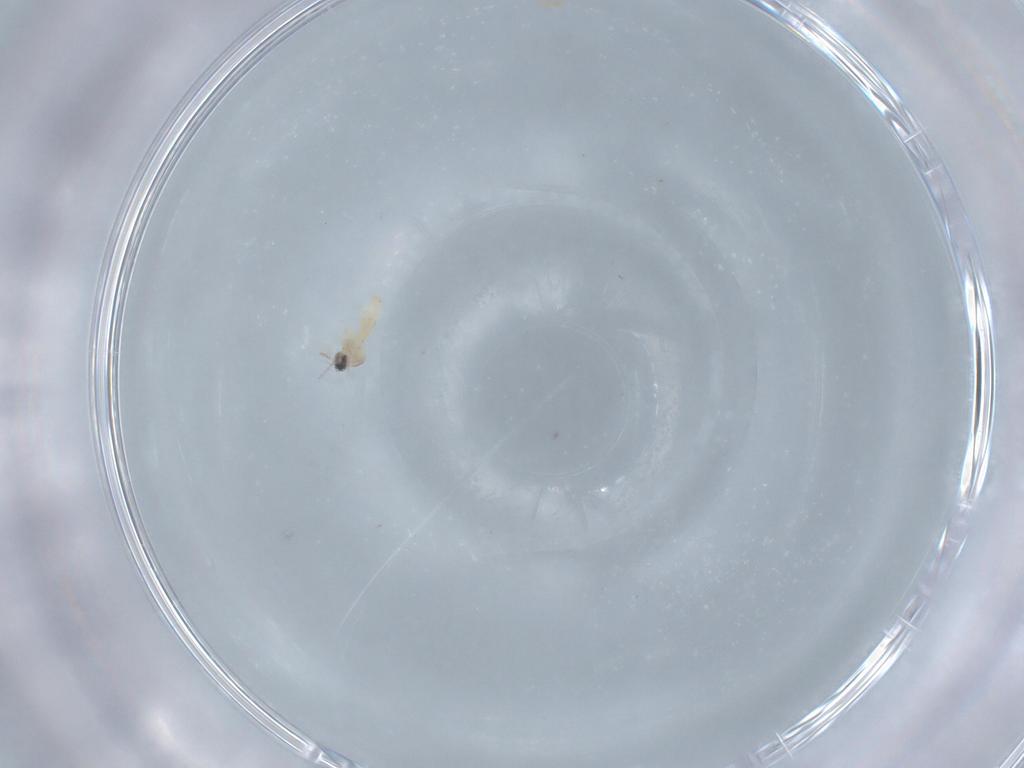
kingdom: Animalia
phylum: Arthropoda
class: Insecta
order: Diptera
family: Cecidomyiidae
